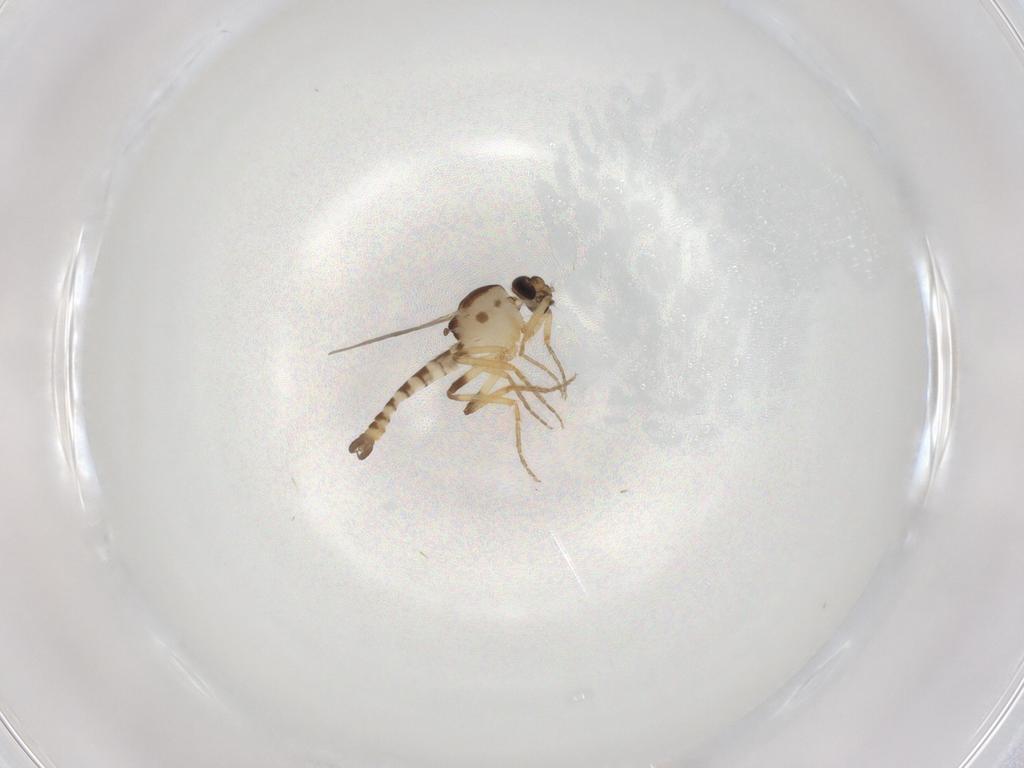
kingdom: Animalia
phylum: Arthropoda
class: Insecta
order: Diptera
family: Ceratopogonidae
